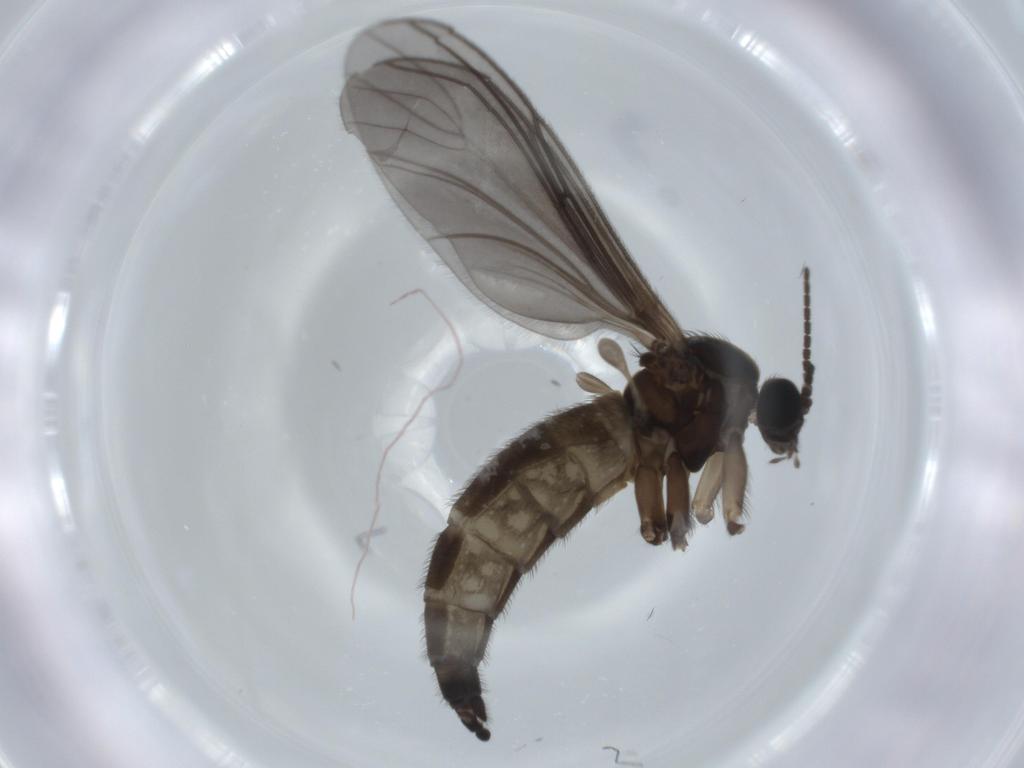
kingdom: Animalia
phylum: Arthropoda
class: Insecta
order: Diptera
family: Sciaridae
